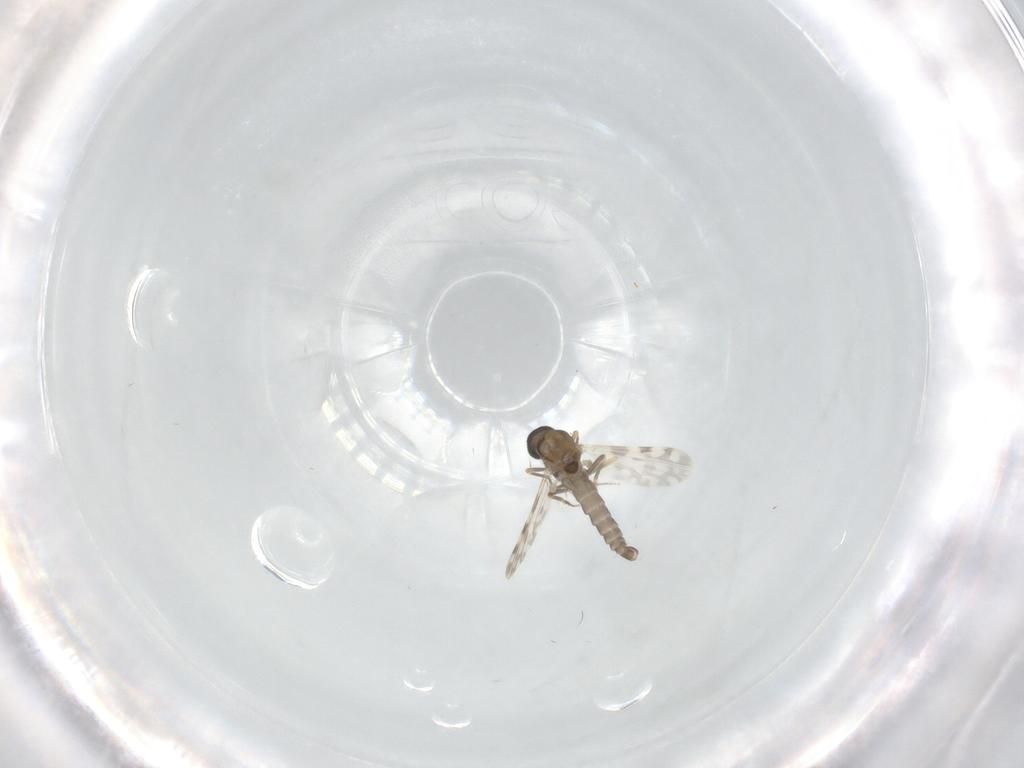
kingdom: Animalia
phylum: Arthropoda
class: Insecta
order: Diptera
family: Ceratopogonidae
